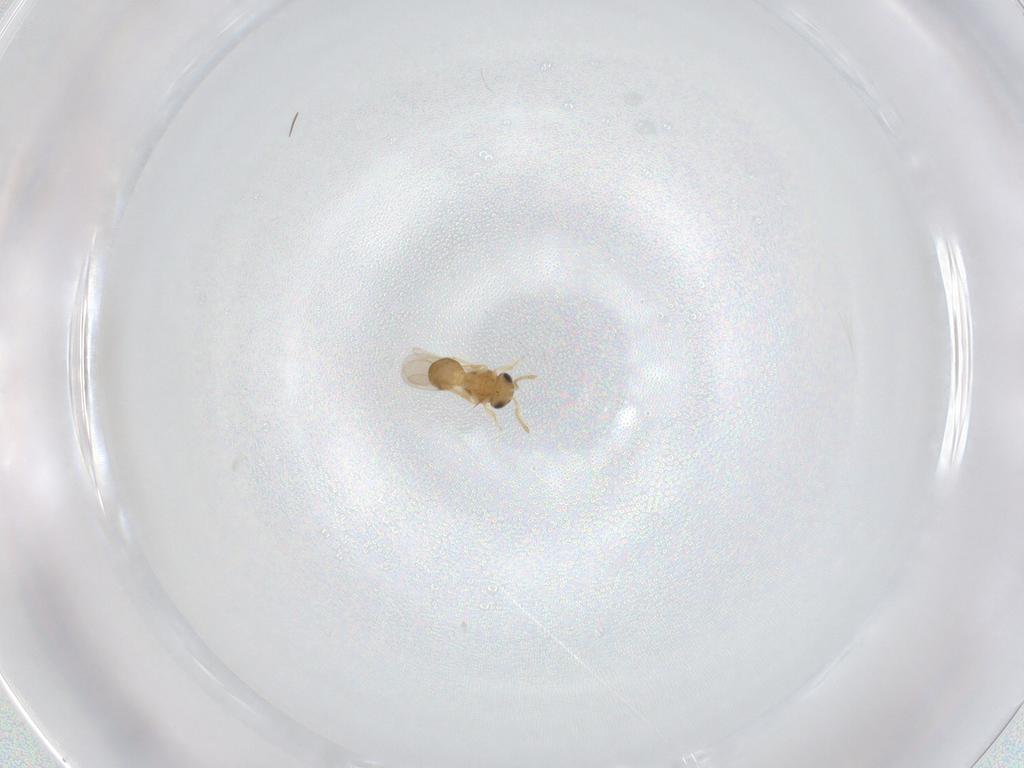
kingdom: Animalia
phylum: Arthropoda
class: Insecta
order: Hymenoptera
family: Scelionidae
